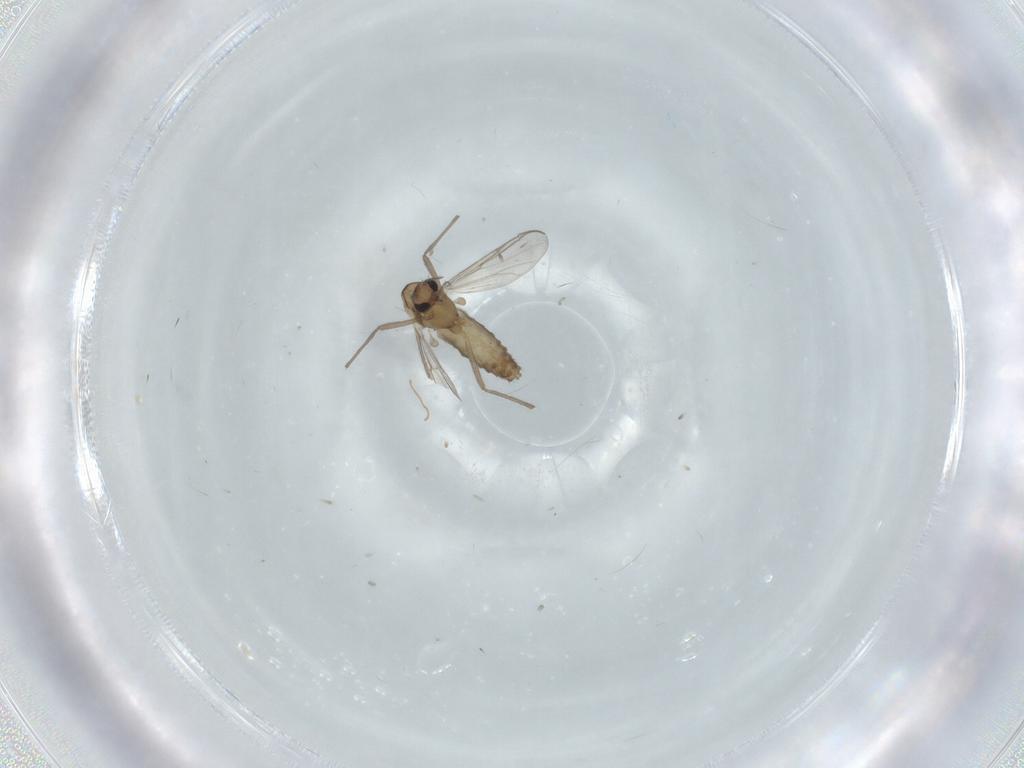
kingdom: Animalia
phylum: Arthropoda
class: Insecta
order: Diptera
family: Chironomidae
